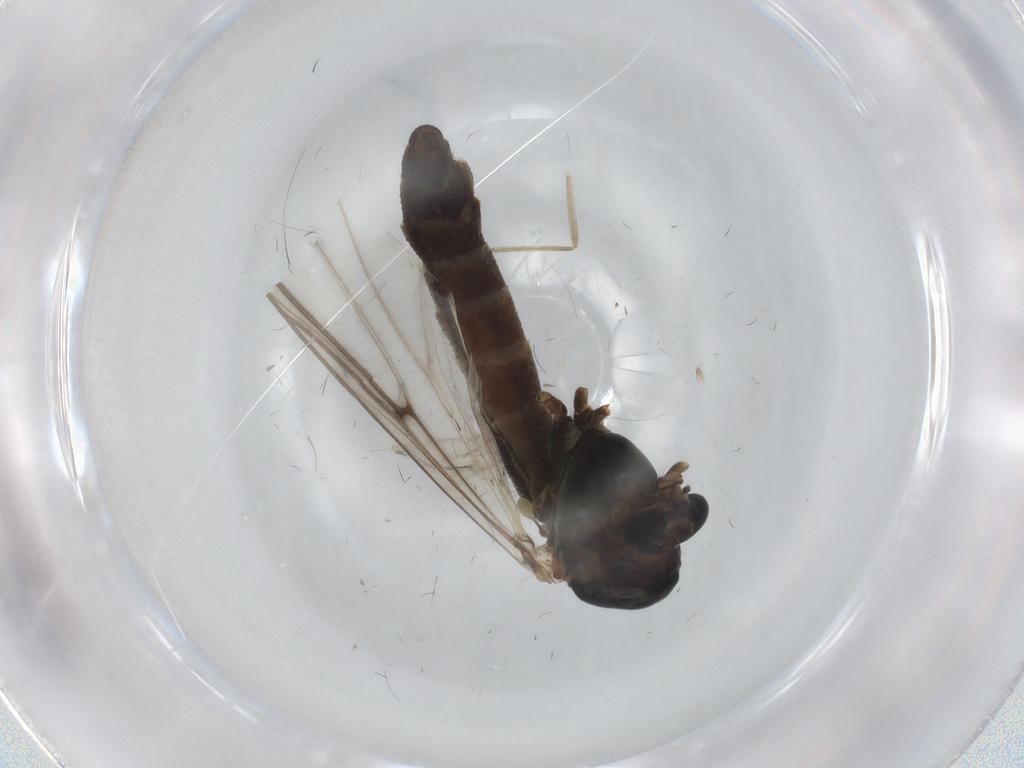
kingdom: Animalia
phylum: Arthropoda
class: Insecta
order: Diptera
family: Chironomidae
